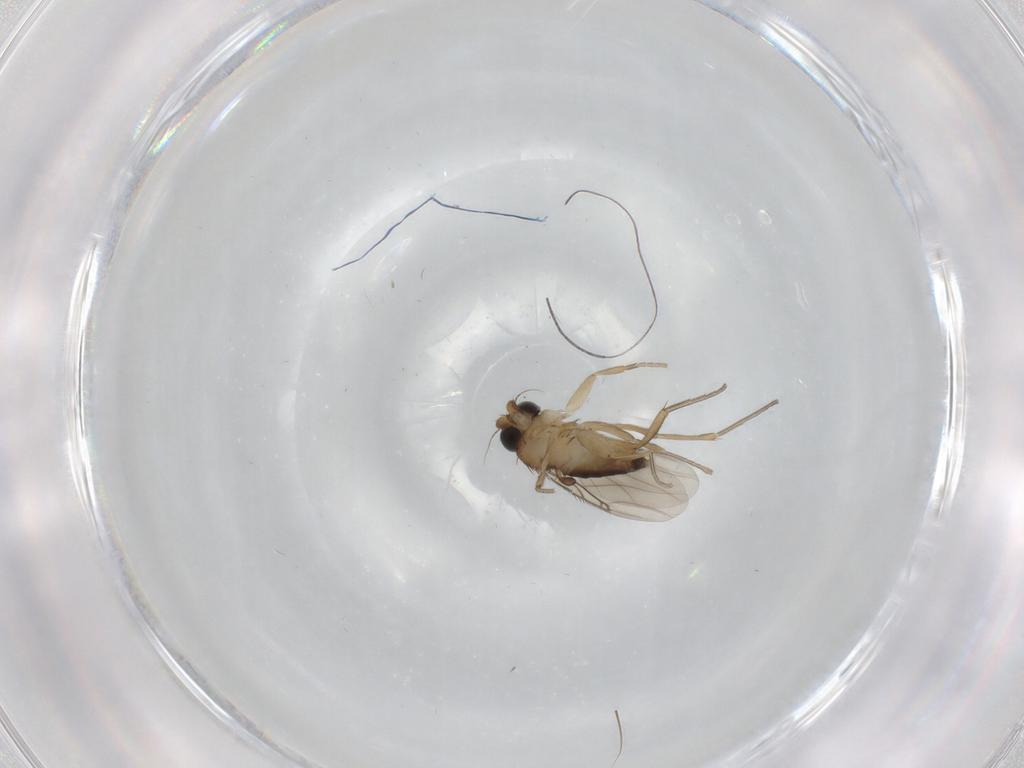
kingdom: Animalia
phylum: Arthropoda
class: Insecta
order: Diptera
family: Phoridae
